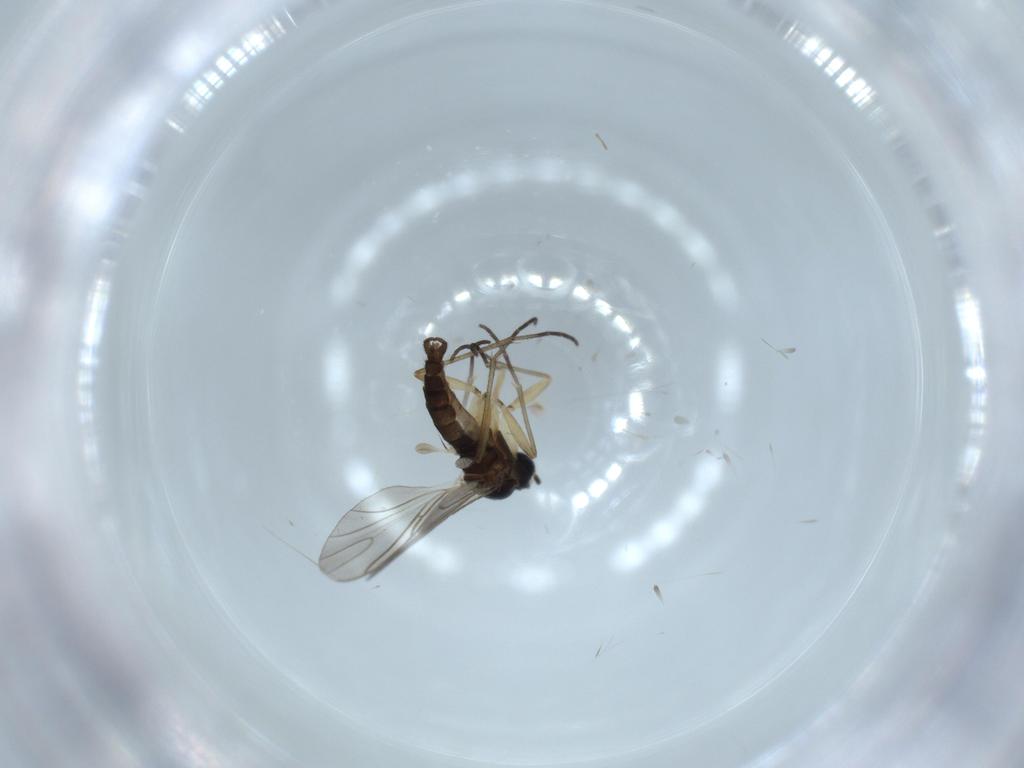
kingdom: Animalia
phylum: Arthropoda
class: Insecta
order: Diptera
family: Sciaridae
